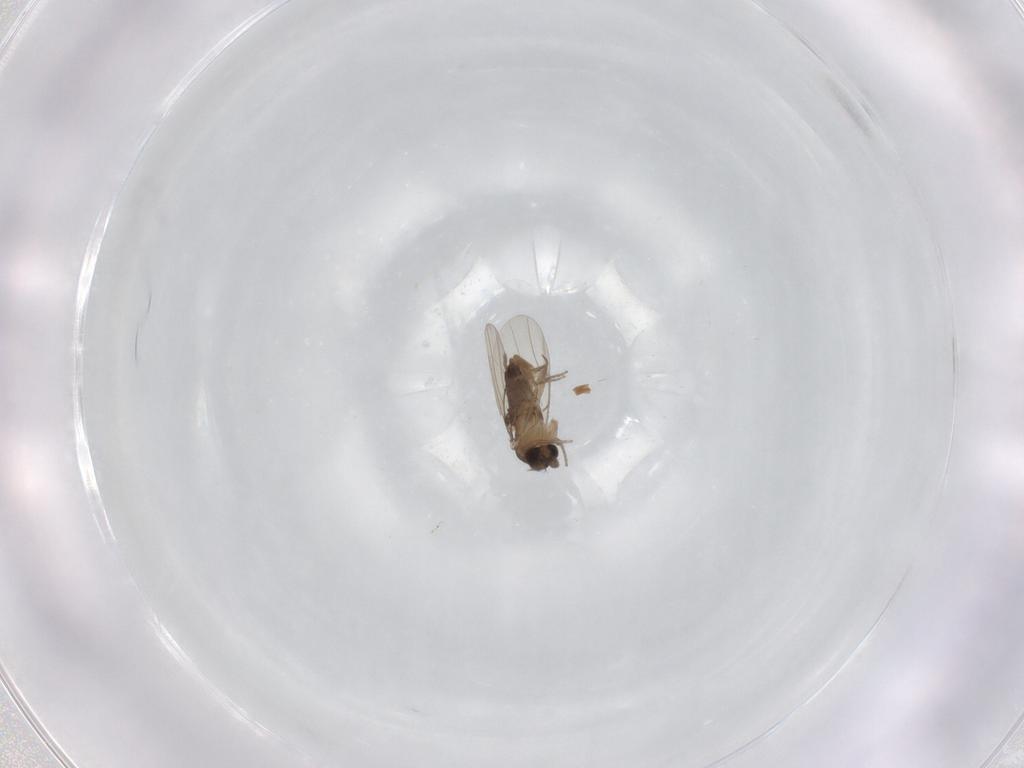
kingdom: Animalia
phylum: Arthropoda
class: Insecta
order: Diptera
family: Phoridae
